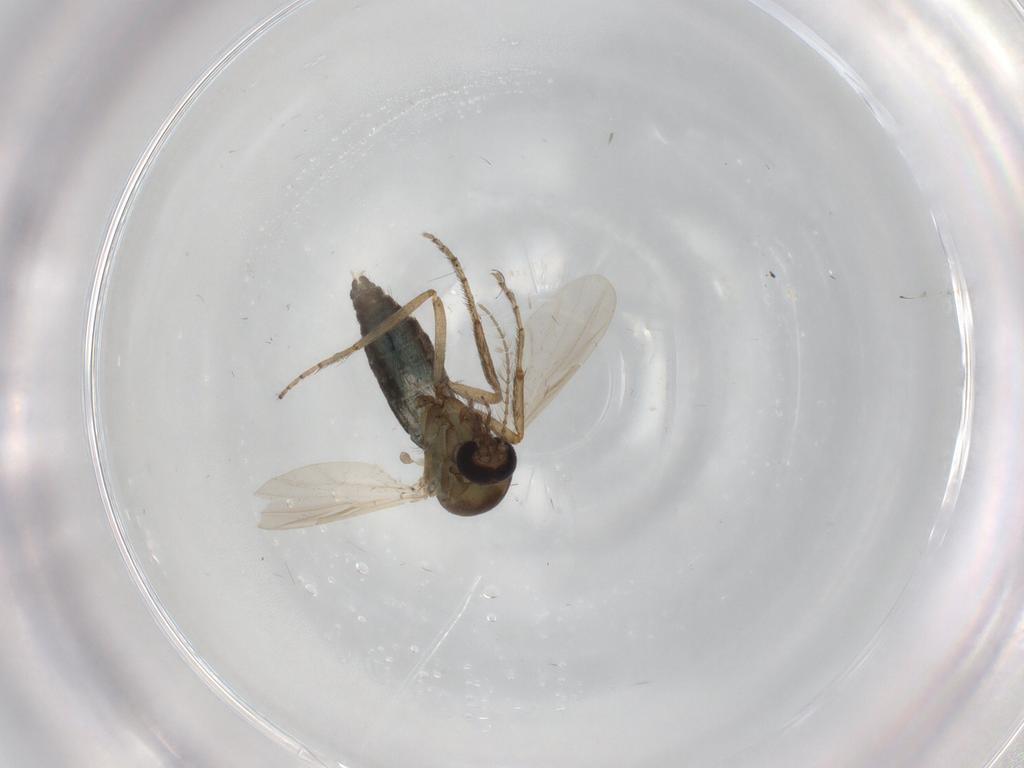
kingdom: Animalia
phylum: Arthropoda
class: Insecta
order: Diptera
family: Ceratopogonidae
